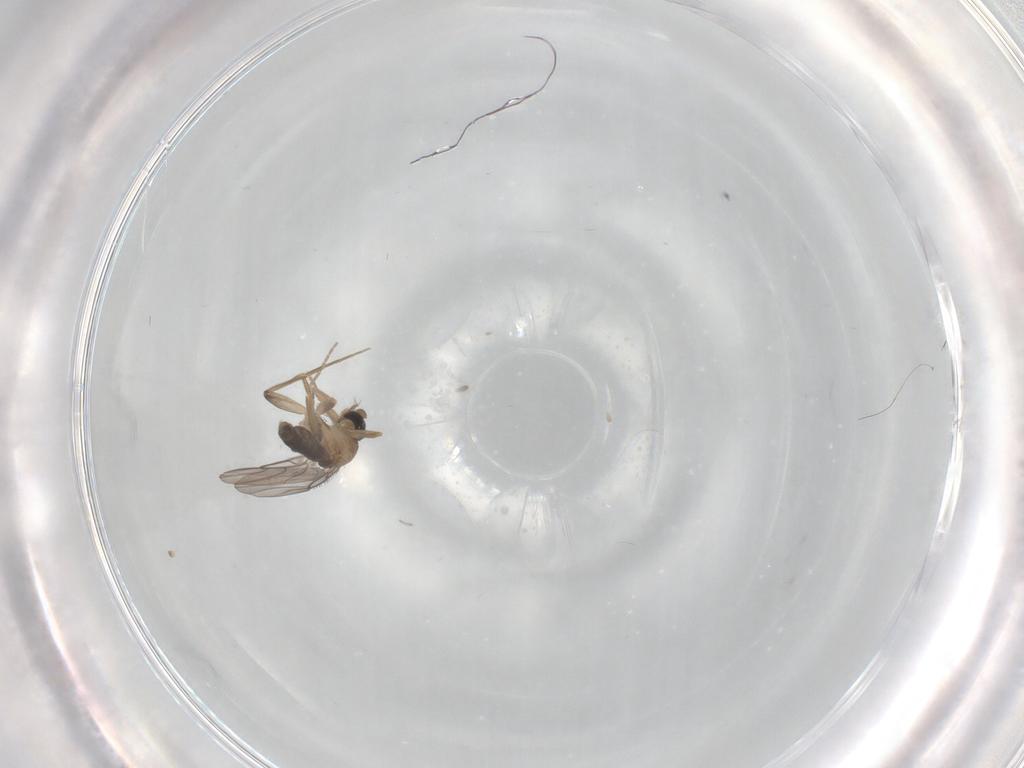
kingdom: Animalia
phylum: Arthropoda
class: Insecta
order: Diptera
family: Phoridae
